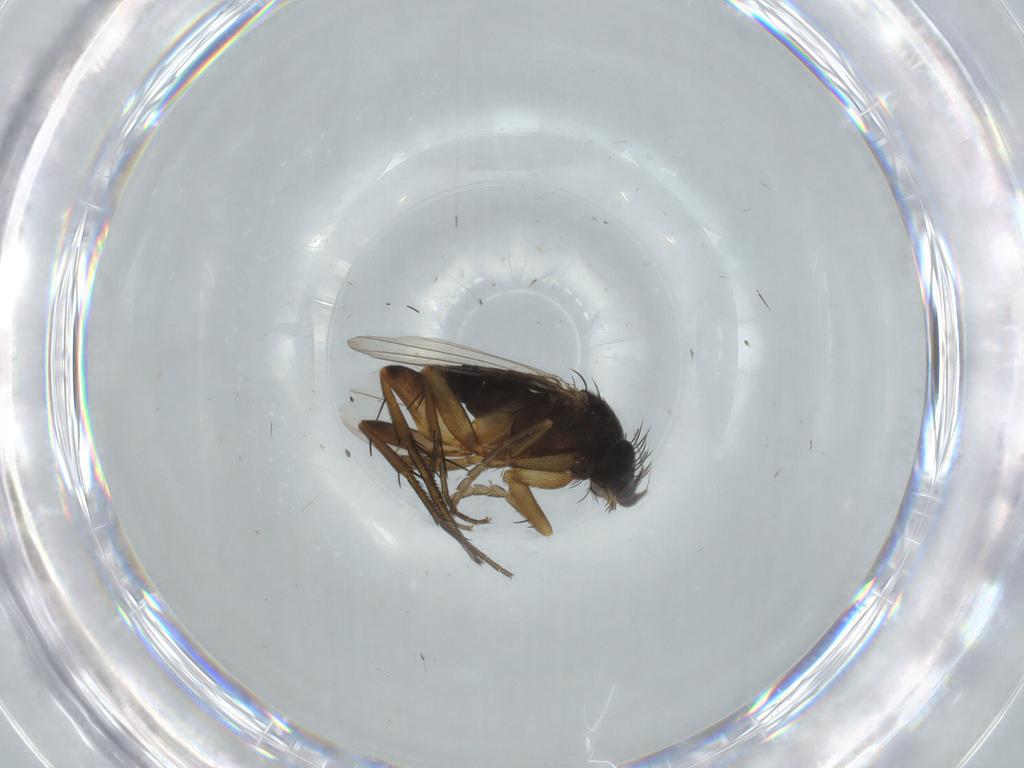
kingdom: Animalia
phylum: Arthropoda
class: Insecta
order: Diptera
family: Phoridae
